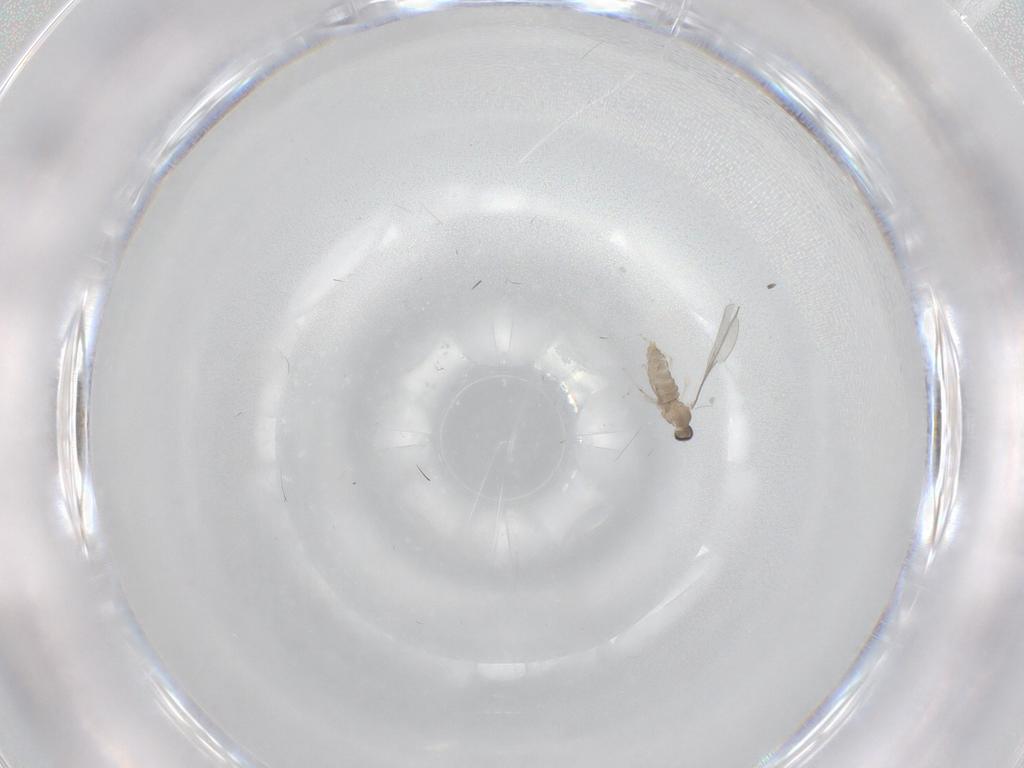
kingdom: Animalia
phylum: Arthropoda
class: Insecta
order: Diptera
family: Cecidomyiidae
